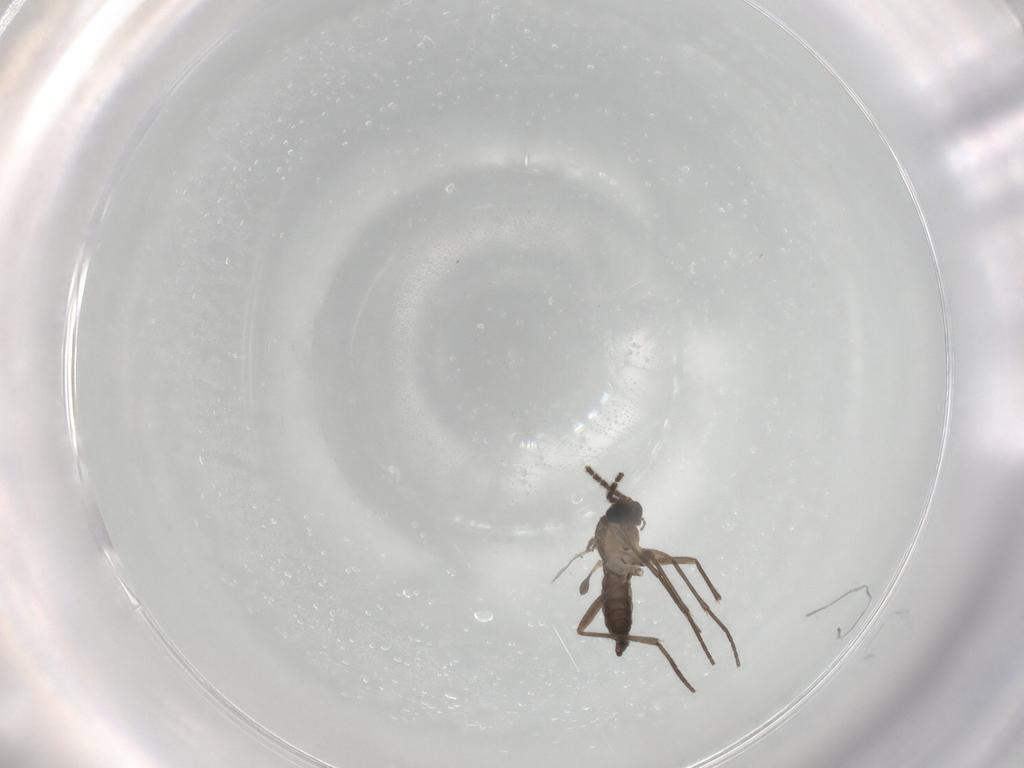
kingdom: Animalia
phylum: Arthropoda
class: Insecta
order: Diptera
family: Sciaridae
